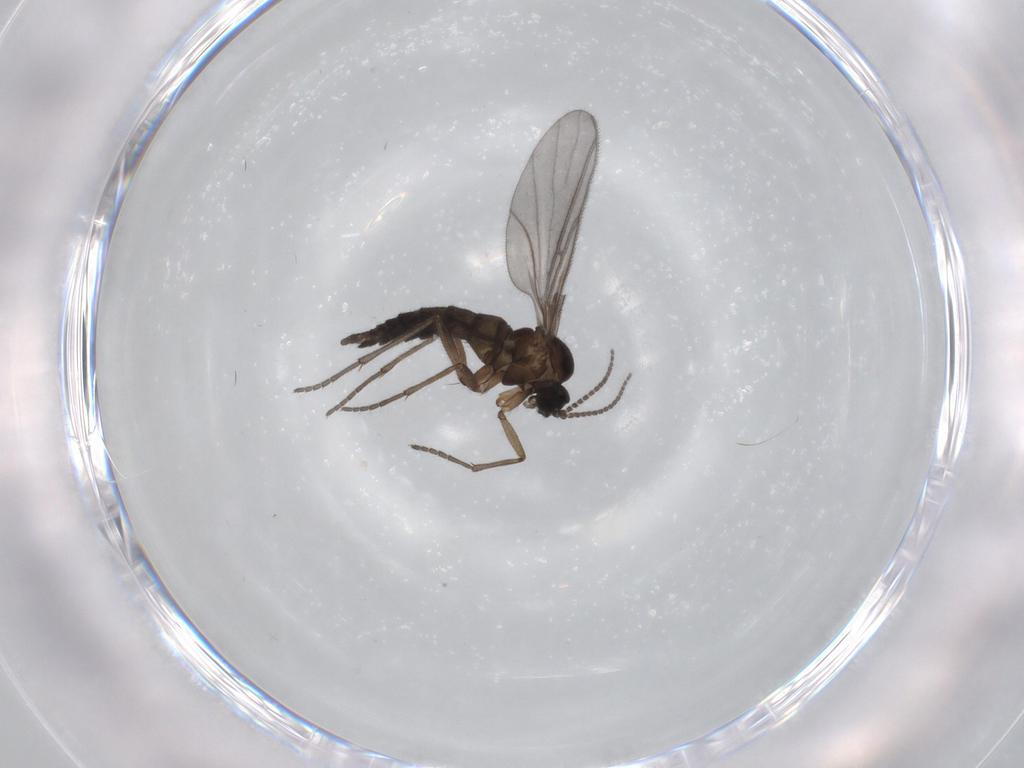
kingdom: Animalia
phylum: Arthropoda
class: Insecta
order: Diptera
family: Sciaridae
